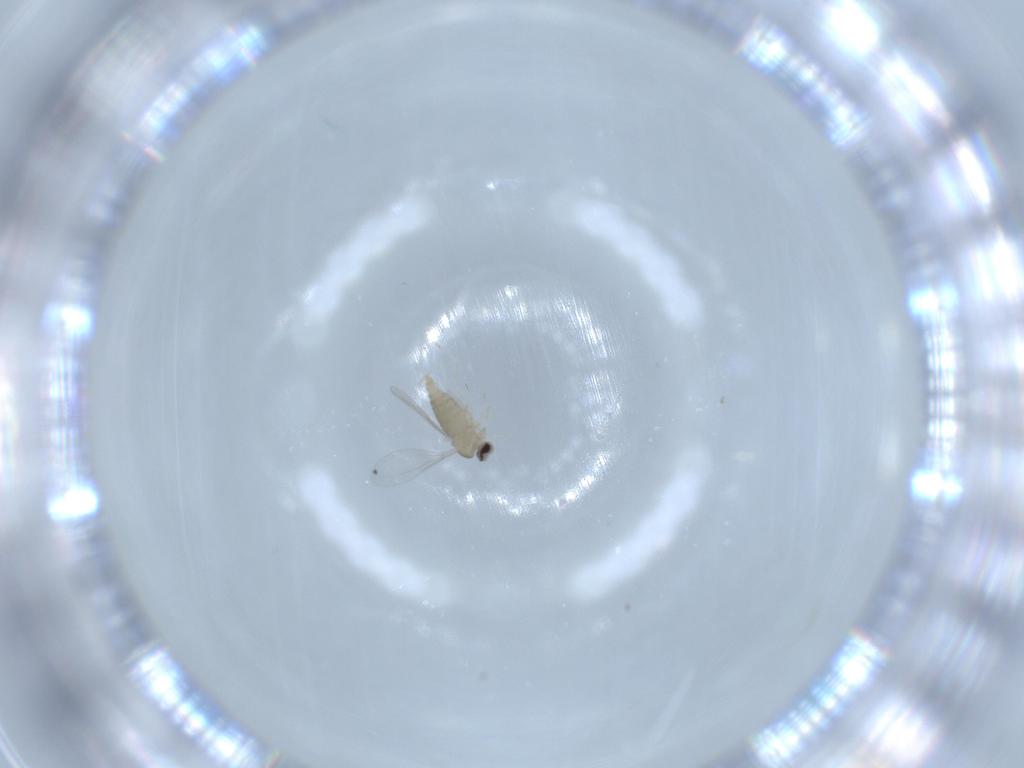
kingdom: Animalia
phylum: Arthropoda
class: Insecta
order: Diptera
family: Cecidomyiidae
